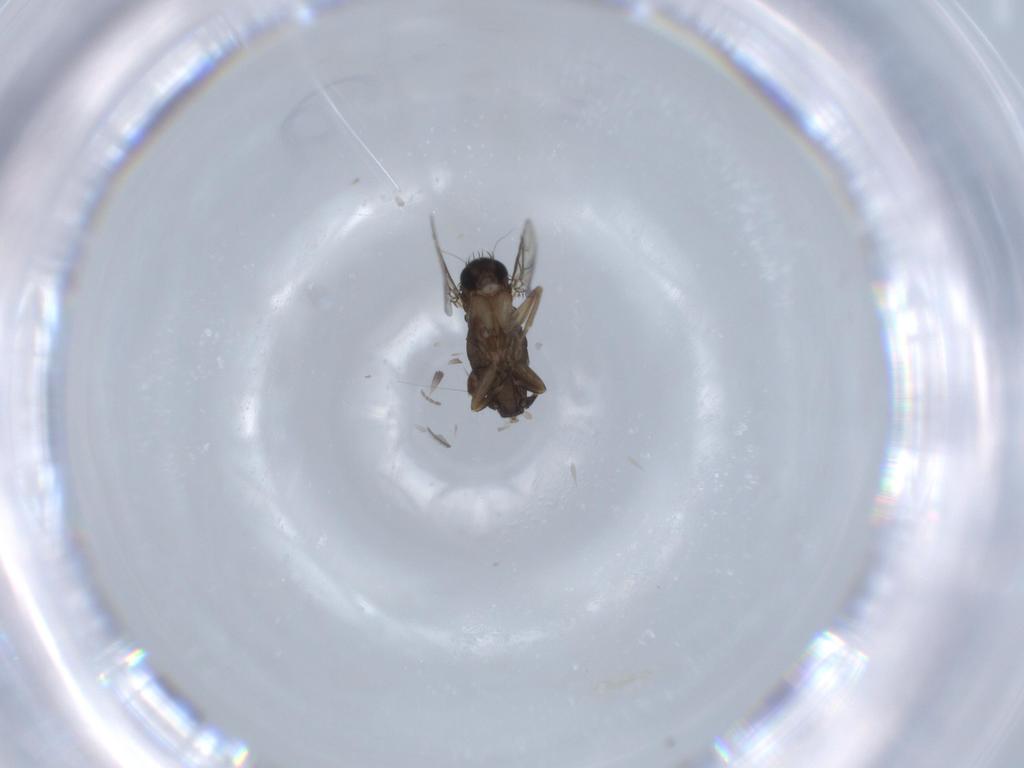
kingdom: Animalia
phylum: Arthropoda
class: Insecta
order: Diptera
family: Phoridae
